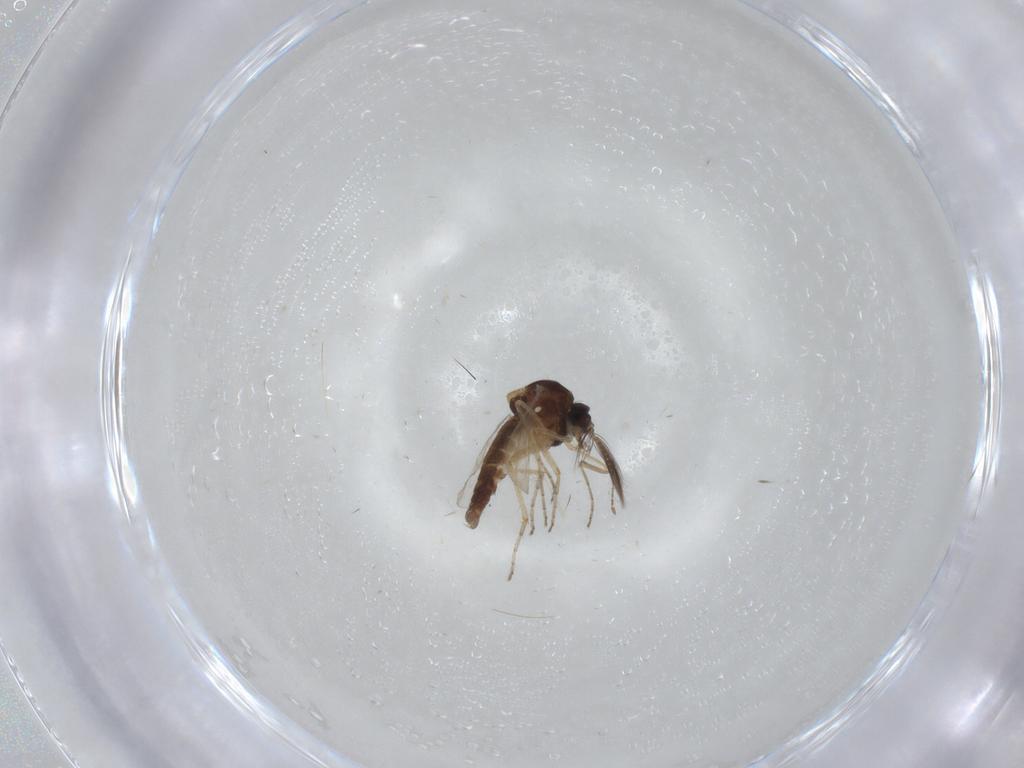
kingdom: Animalia
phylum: Arthropoda
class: Insecta
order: Diptera
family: Ceratopogonidae
